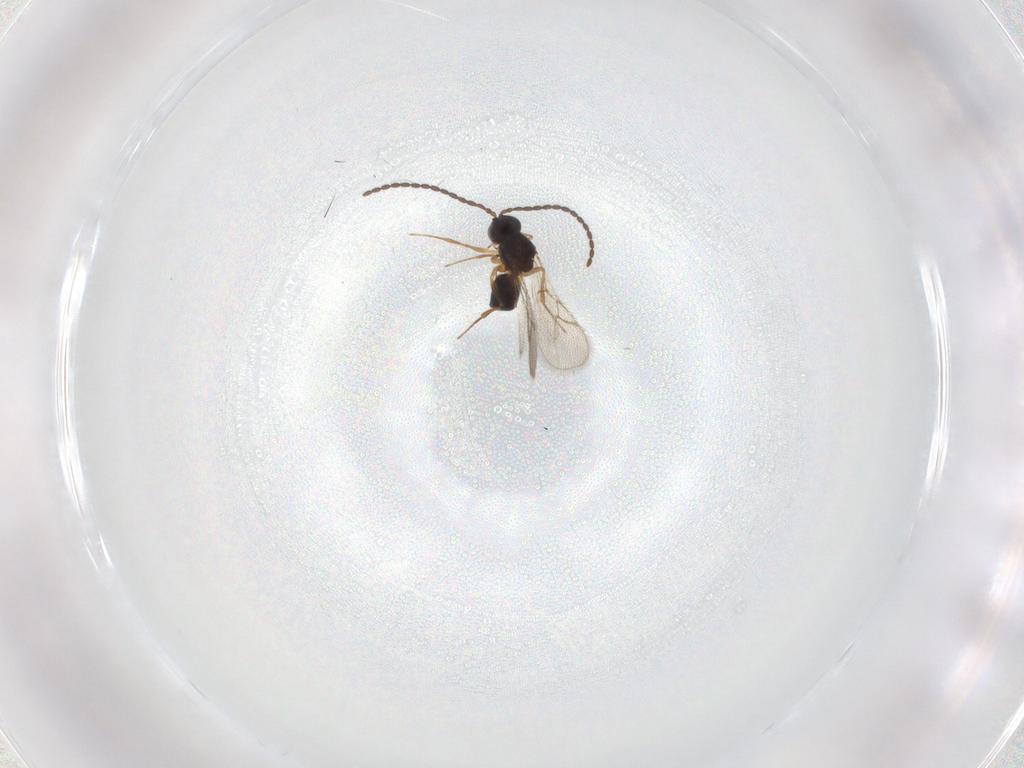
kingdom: Animalia
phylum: Arthropoda
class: Insecta
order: Hymenoptera
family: Figitidae
